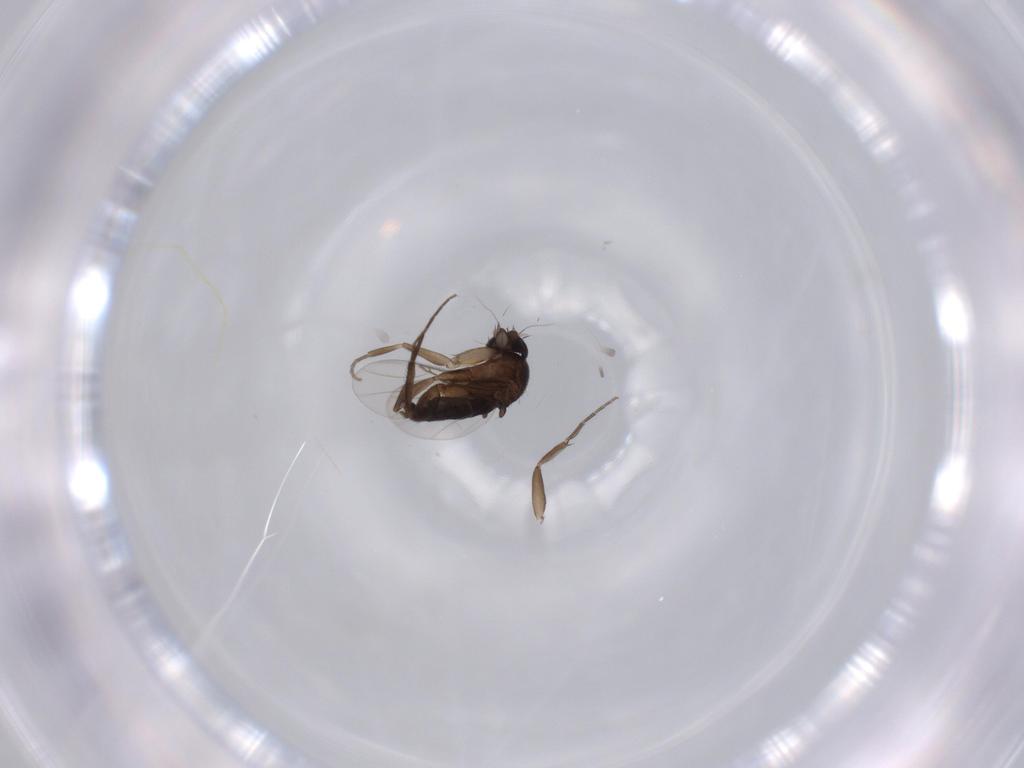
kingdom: Animalia
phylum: Arthropoda
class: Insecta
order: Diptera
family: Phoridae
